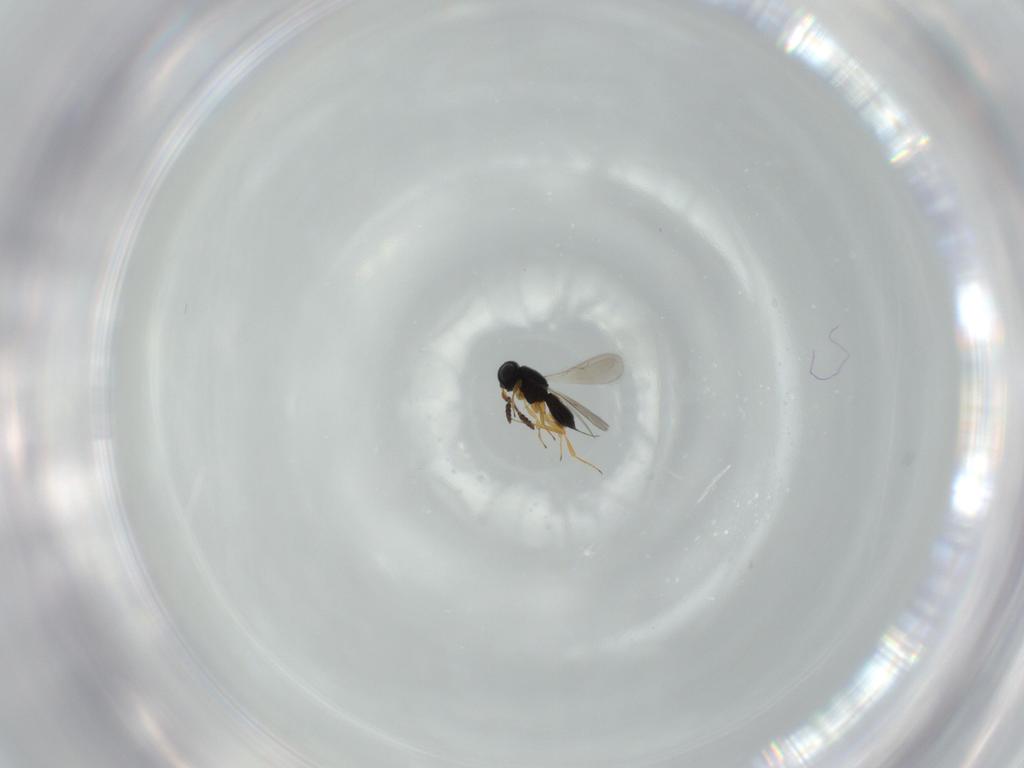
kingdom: Animalia
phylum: Arthropoda
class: Insecta
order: Hymenoptera
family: Scelionidae
